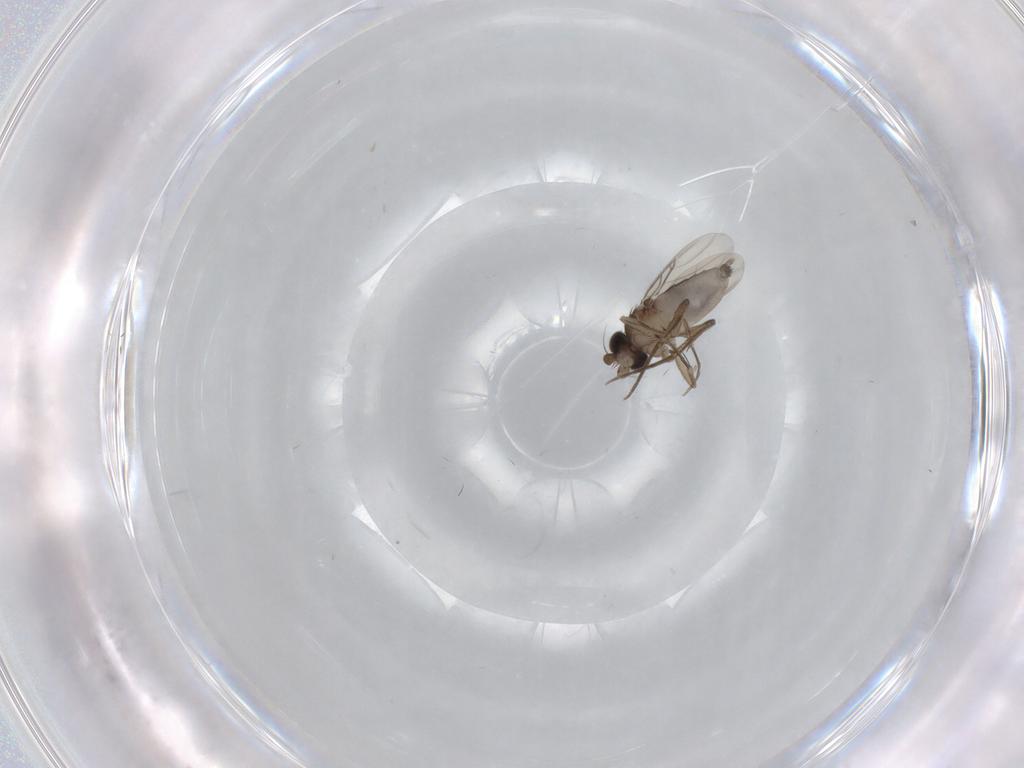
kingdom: Animalia
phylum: Arthropoda
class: Insecta
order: Diptera
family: Phoridae
